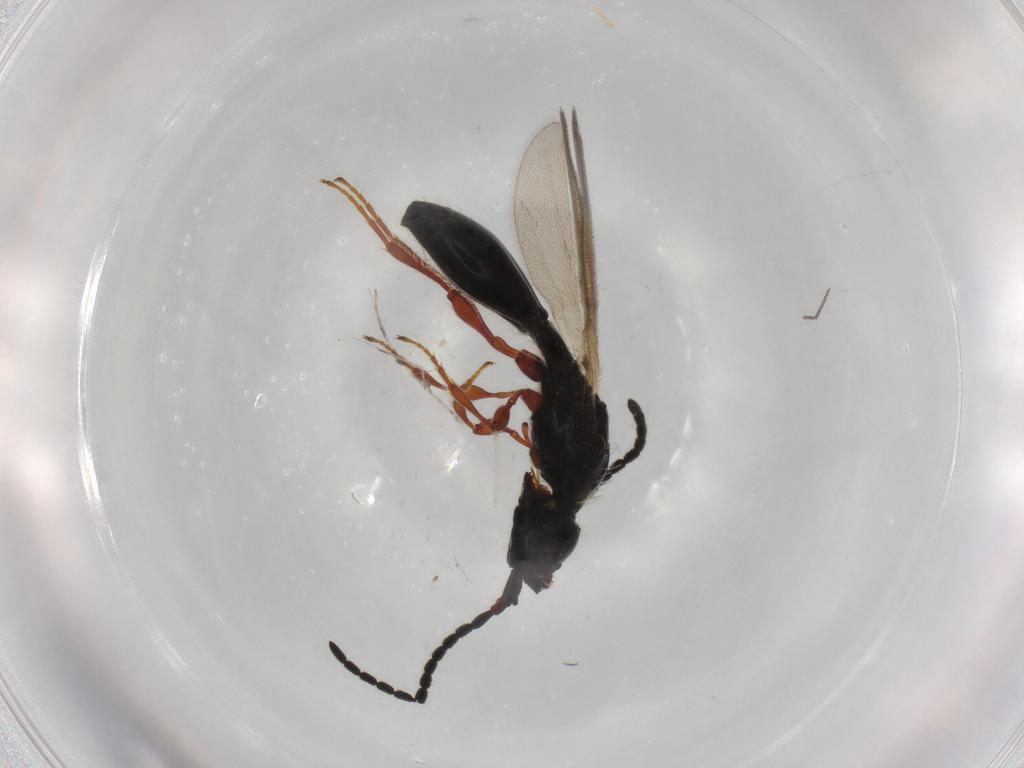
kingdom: Animalia
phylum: Arthropoda
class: Insecta
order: Hymenoptera
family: Diapriidae
